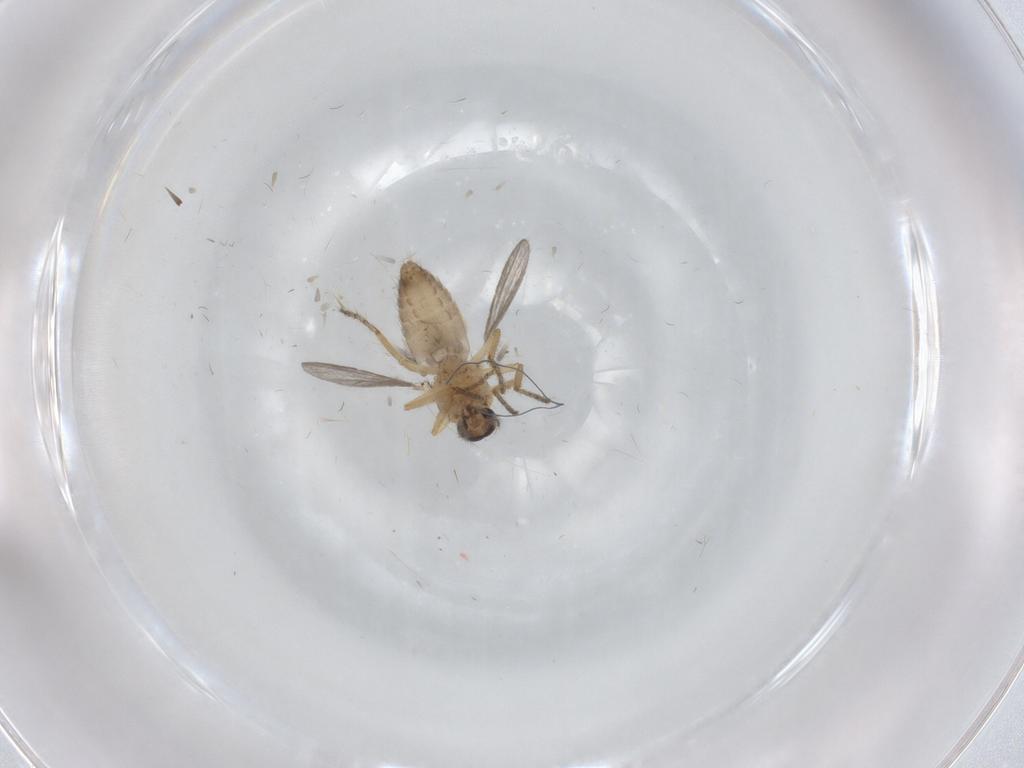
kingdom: Animalia
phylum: Arthropoda
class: Insecta
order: Diptera
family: Ceratopogonidae
